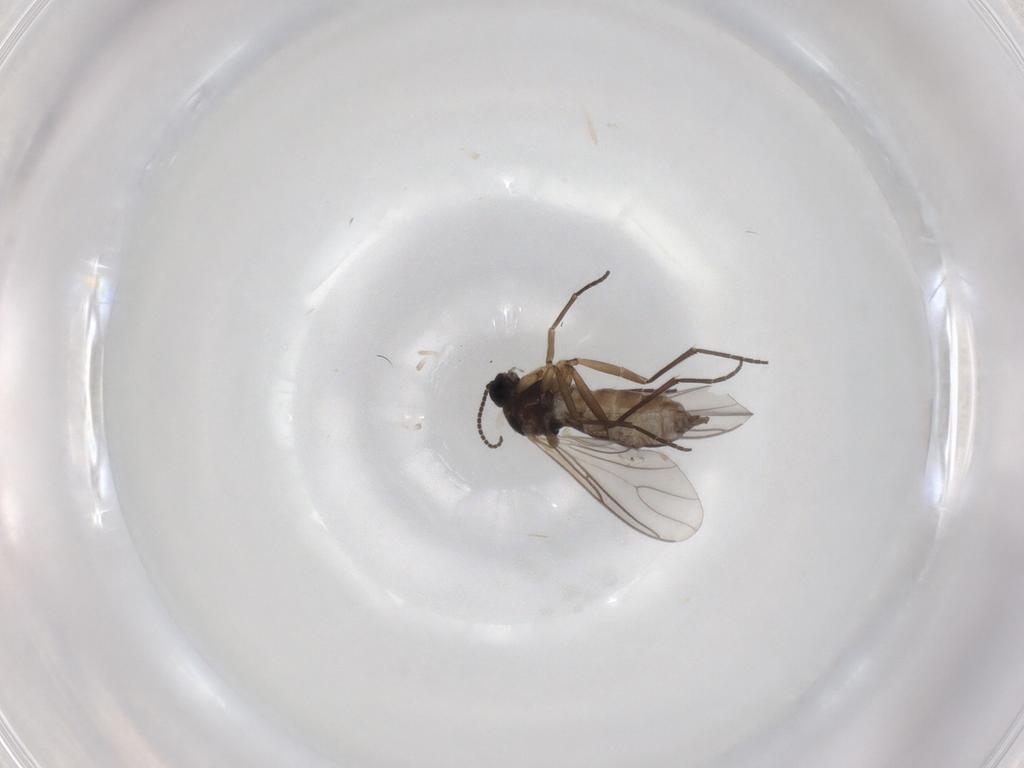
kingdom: Animalia
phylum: Arthropoda
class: Insecta
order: Diptera
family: Sciaridae
